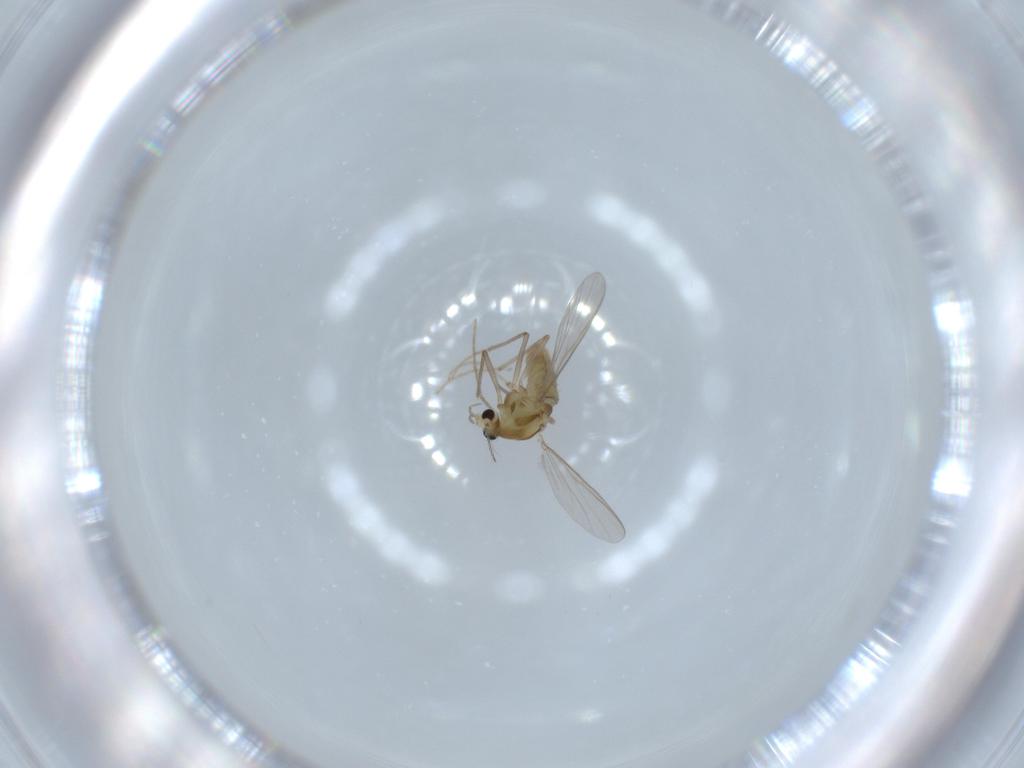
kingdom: Animalia
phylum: Arthropoda
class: Insecta
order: Diptera
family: Chironomidae
